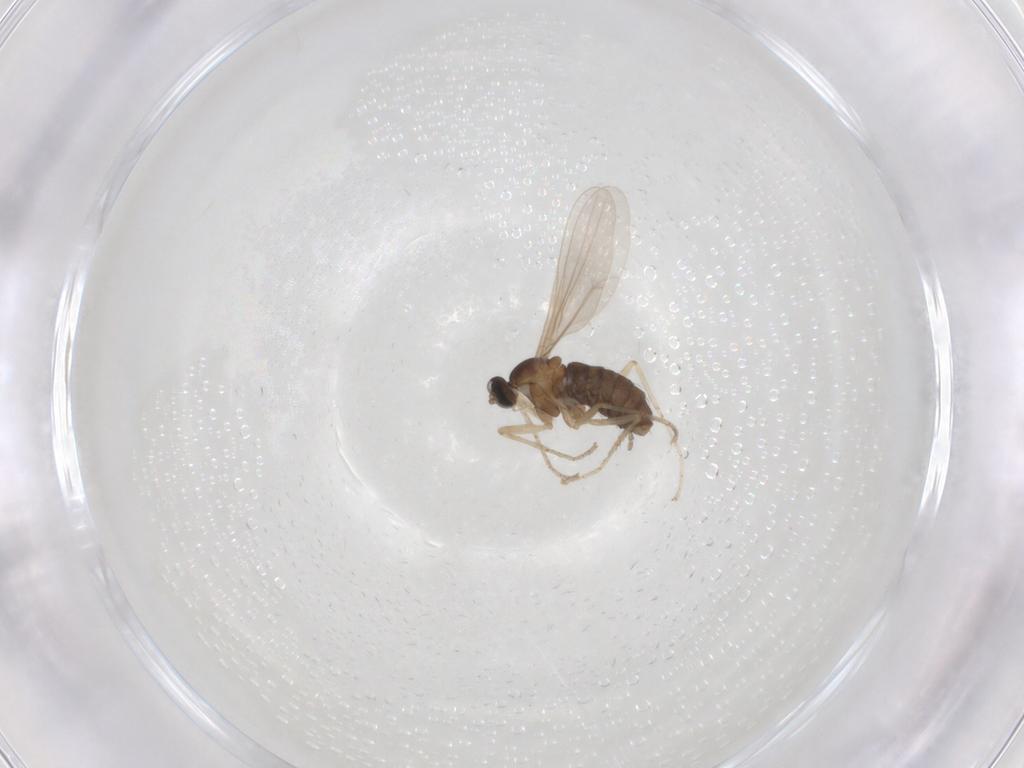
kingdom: Animalia
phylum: Arthropoda
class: Insecta
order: Diptera
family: Cecidomyiidae
